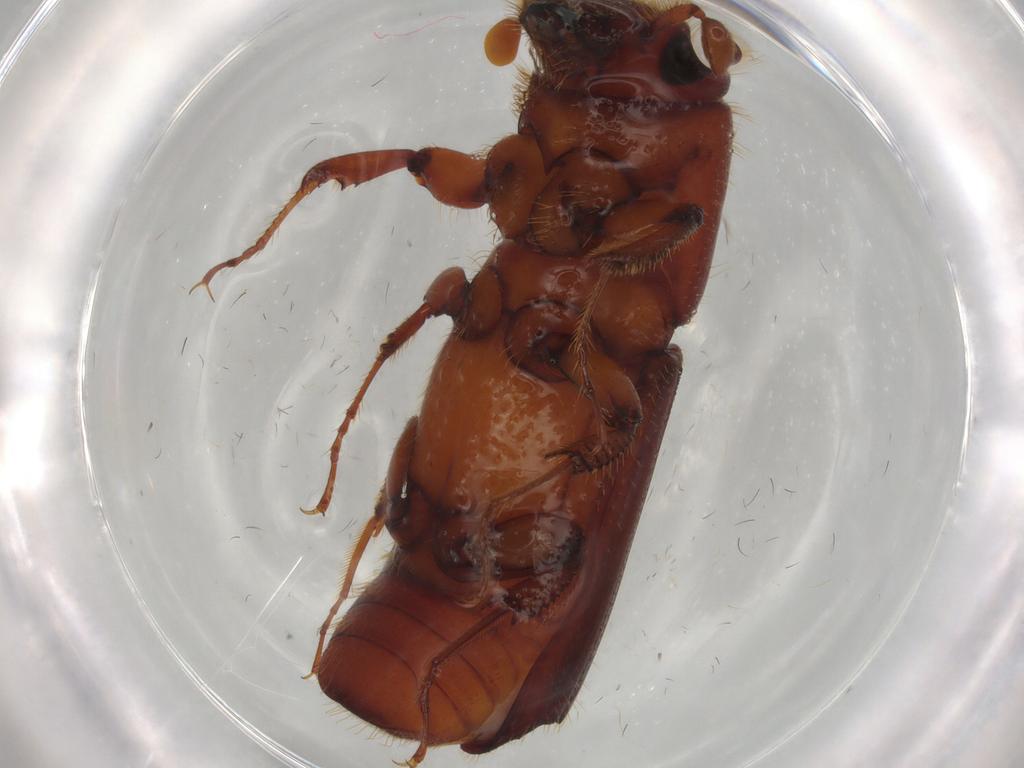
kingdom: Animalia
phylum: Arthropoda
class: Insecta
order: Coleoptera
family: Curculionidae
